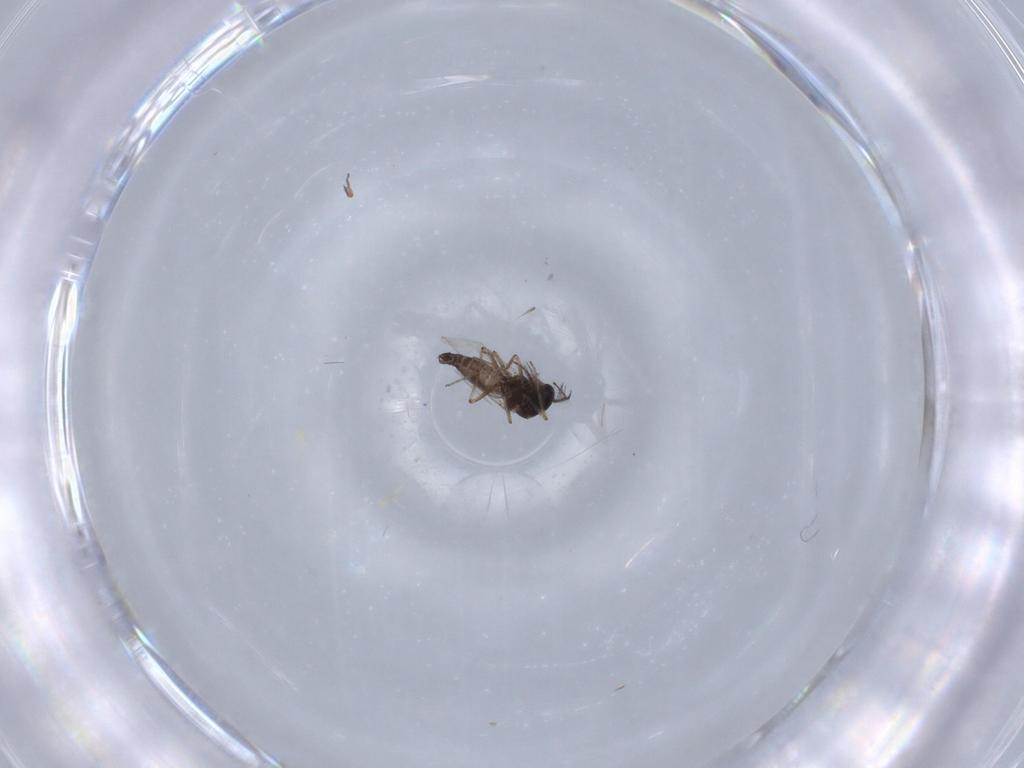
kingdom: Animalia
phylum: Arthropoda
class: Insecta
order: Diptera
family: Ceratopogonidae
